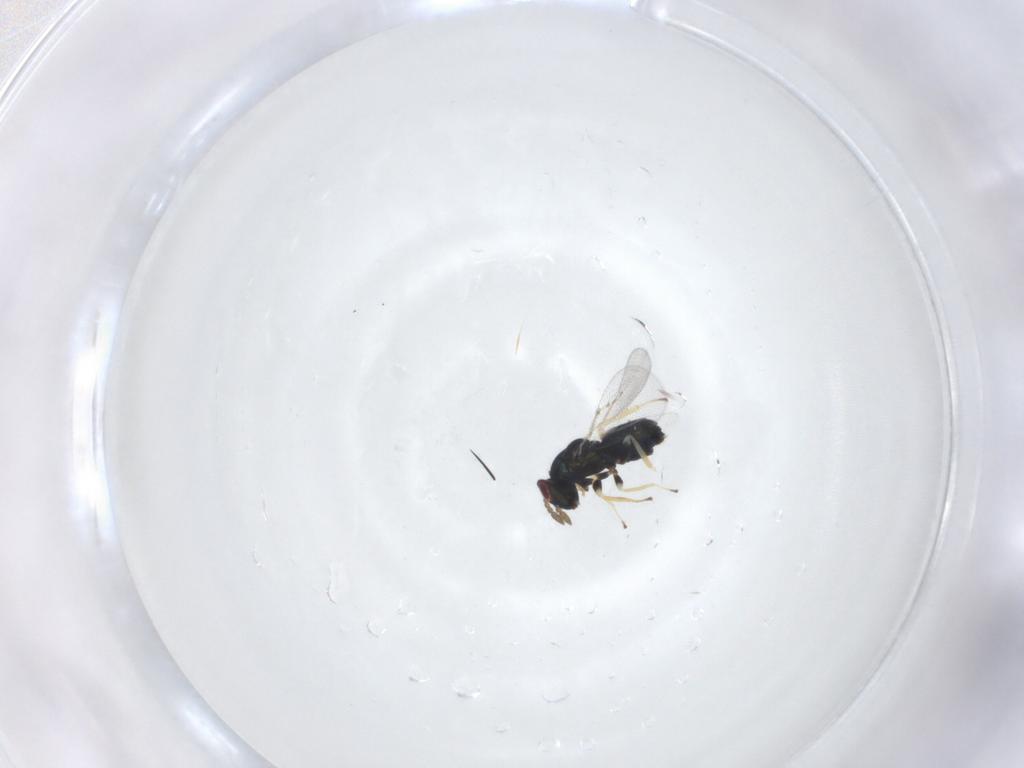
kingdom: Animalia
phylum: Arthropoda
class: Insecta
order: Hymenoptera
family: Eulophidae
